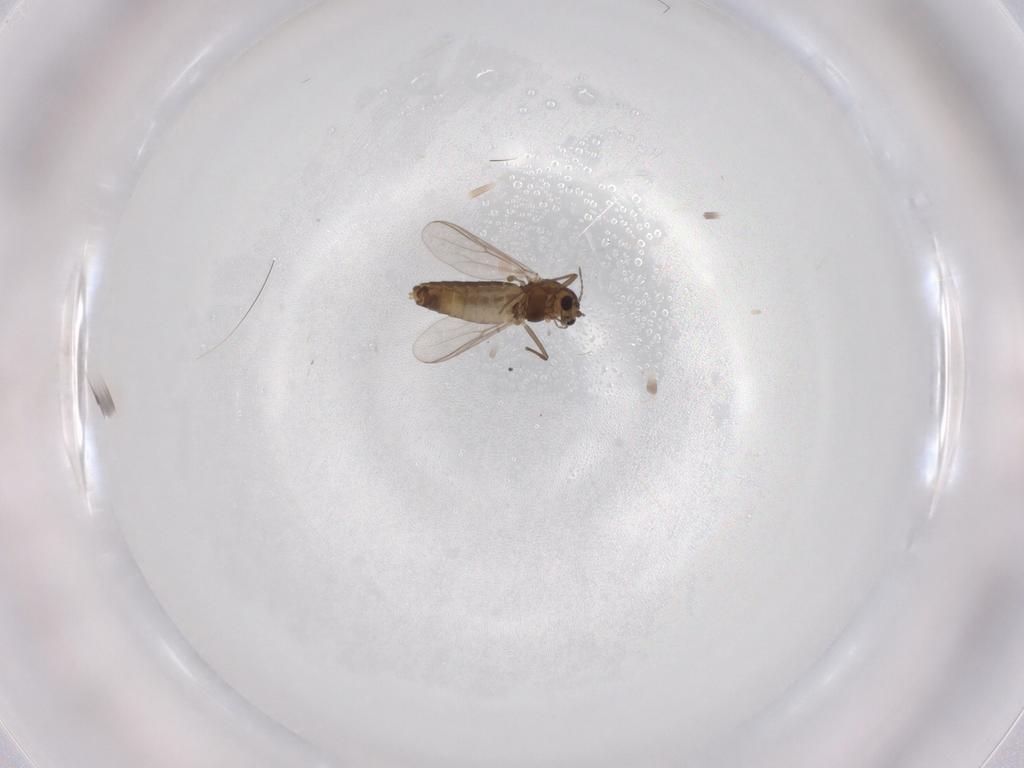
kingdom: Animalia
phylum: Arthropoda
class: Insecta
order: Diptera
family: Chironomidae
